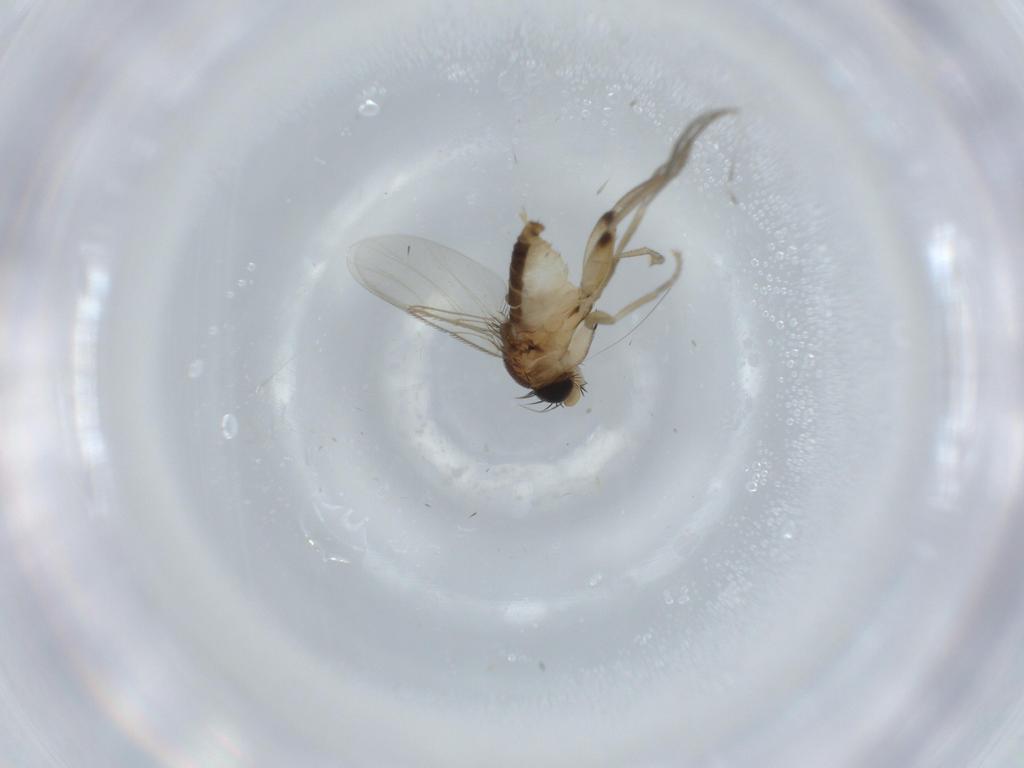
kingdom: Animalia
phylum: Arthropoda
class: Insecta
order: Diptera
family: Phoridae
